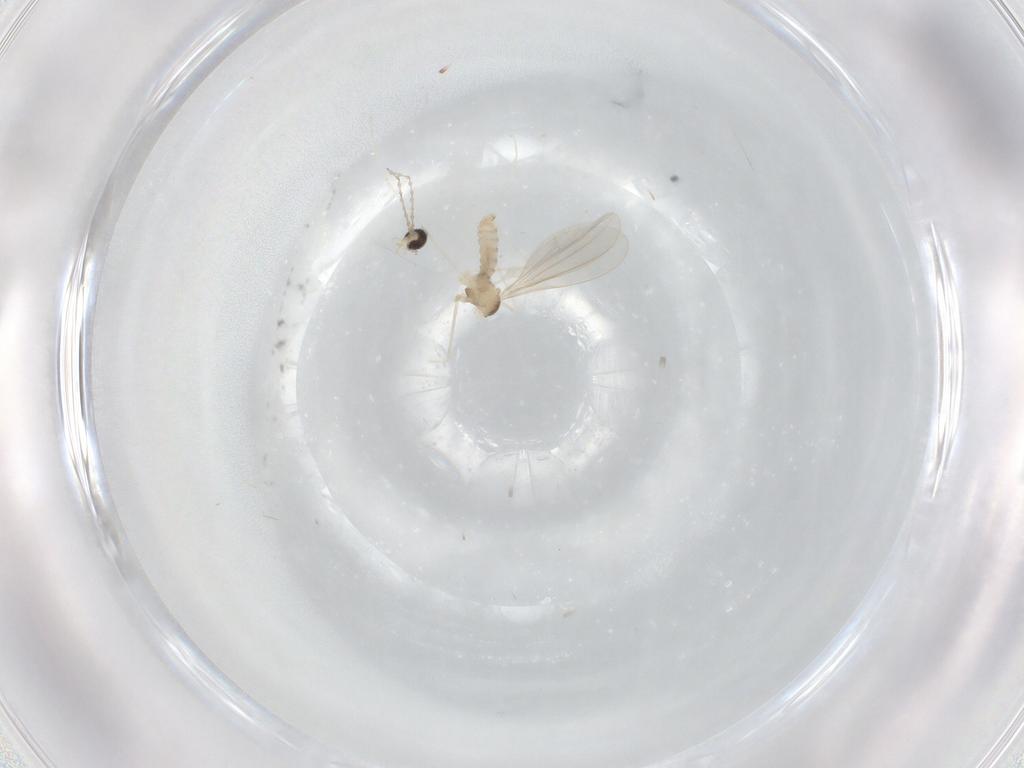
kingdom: Animalia
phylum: Arthropoda
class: Insecta
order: Diptera
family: Cecidomyiidae
